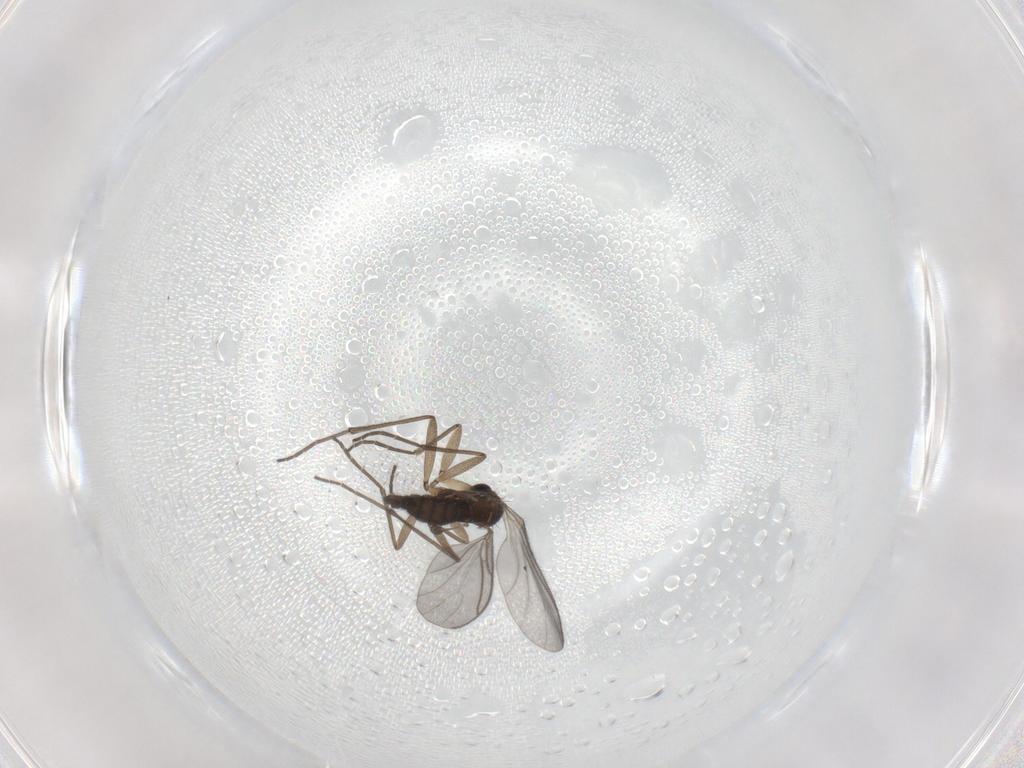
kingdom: Animalia
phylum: Arthropoda
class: Insecta
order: Diptera
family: Sciaridae
